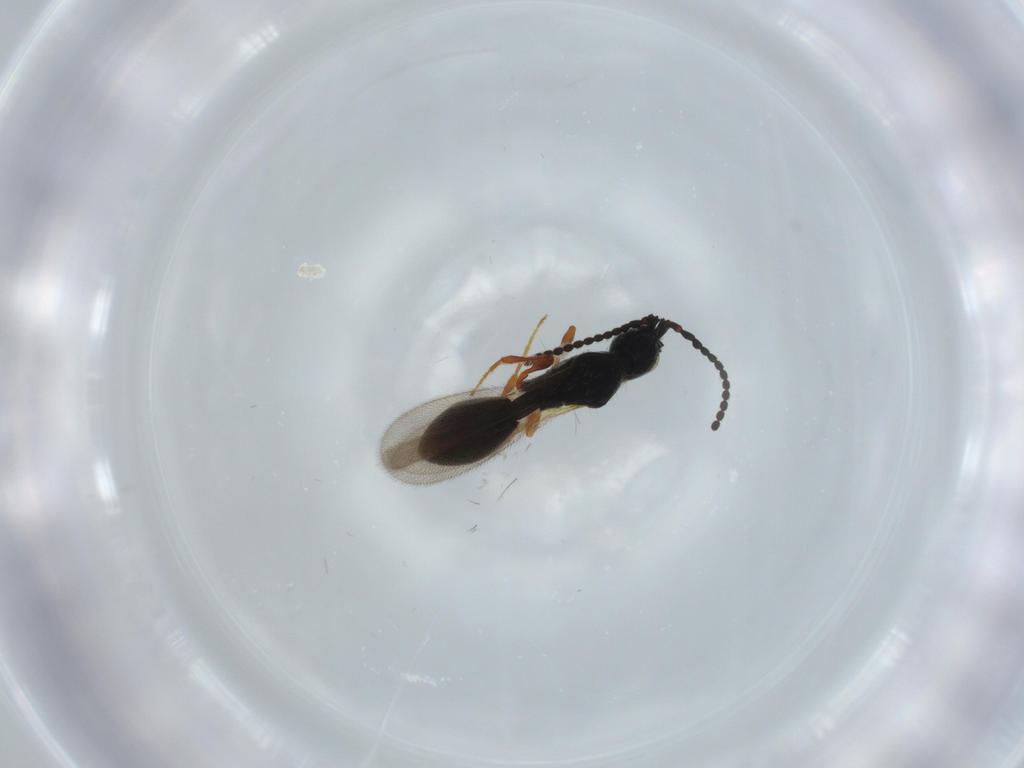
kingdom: Animalia
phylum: Arthropoda
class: Insecta
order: Hymenoptera
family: Diapriidae
